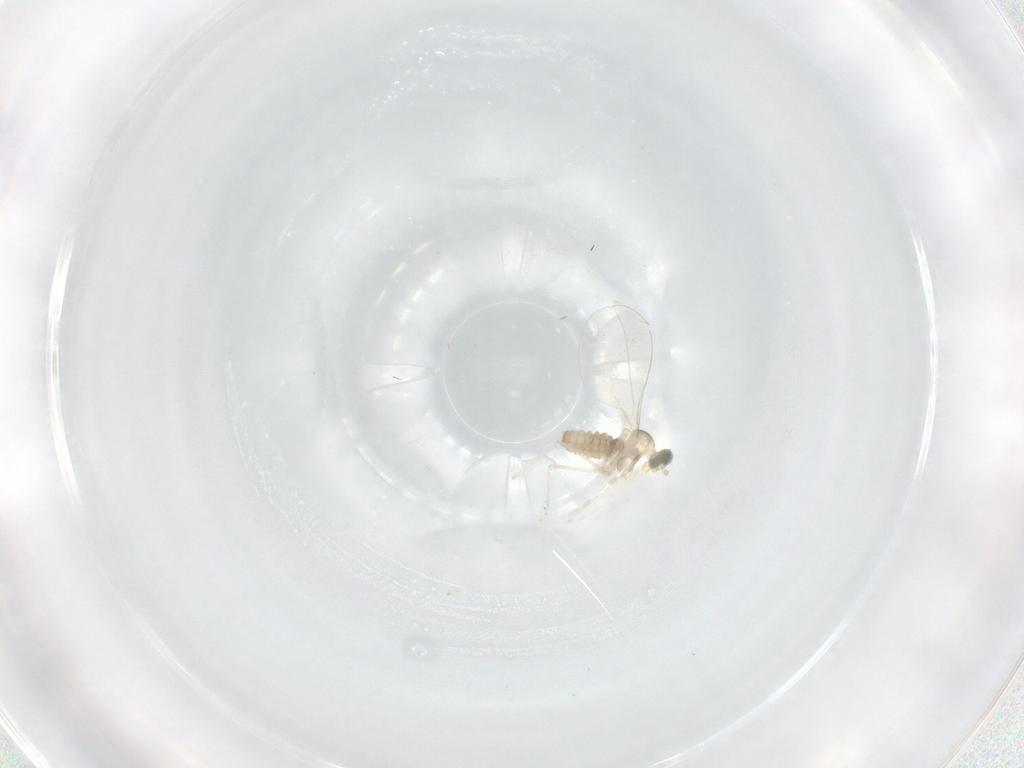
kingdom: Animalia
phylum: Arthropoda
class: Insecta
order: Diptera
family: Cecidomyiidae
